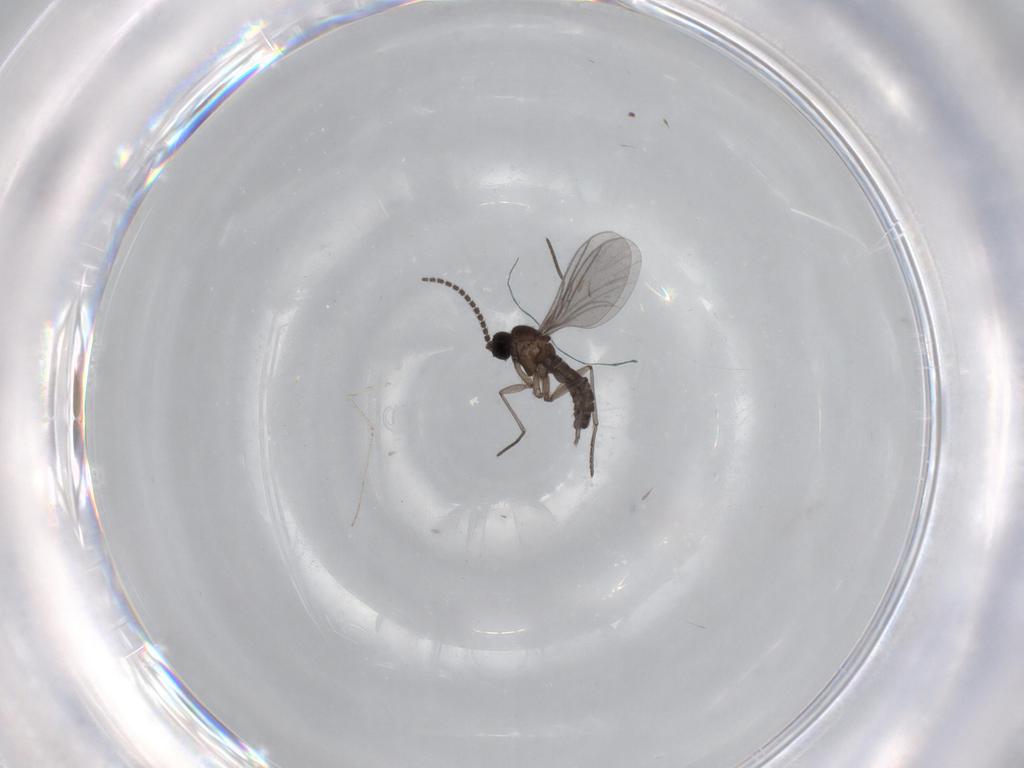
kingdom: Animalia
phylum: Arthropoda
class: Insecta
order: Diptera
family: Sciaridae
